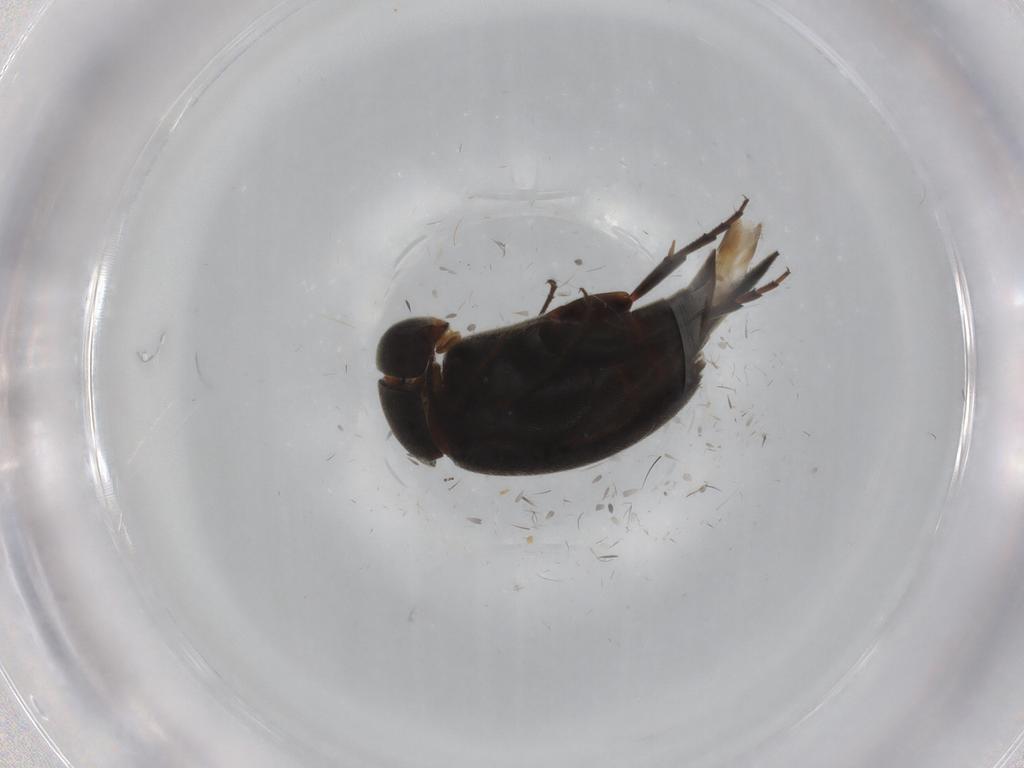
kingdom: Animalia
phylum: Arthropoda
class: Insecta
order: Coleoptera
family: Mordellidae
